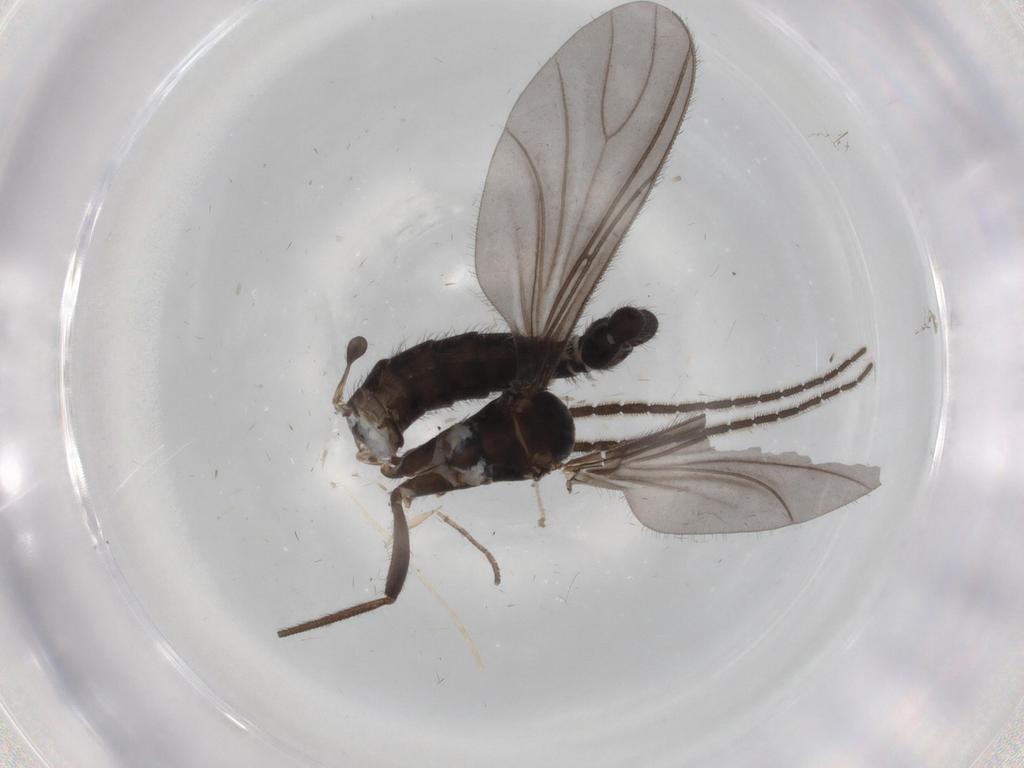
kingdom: Animalia
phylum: Arthropoda
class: Insecta
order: Diptera
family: Sciaridae
